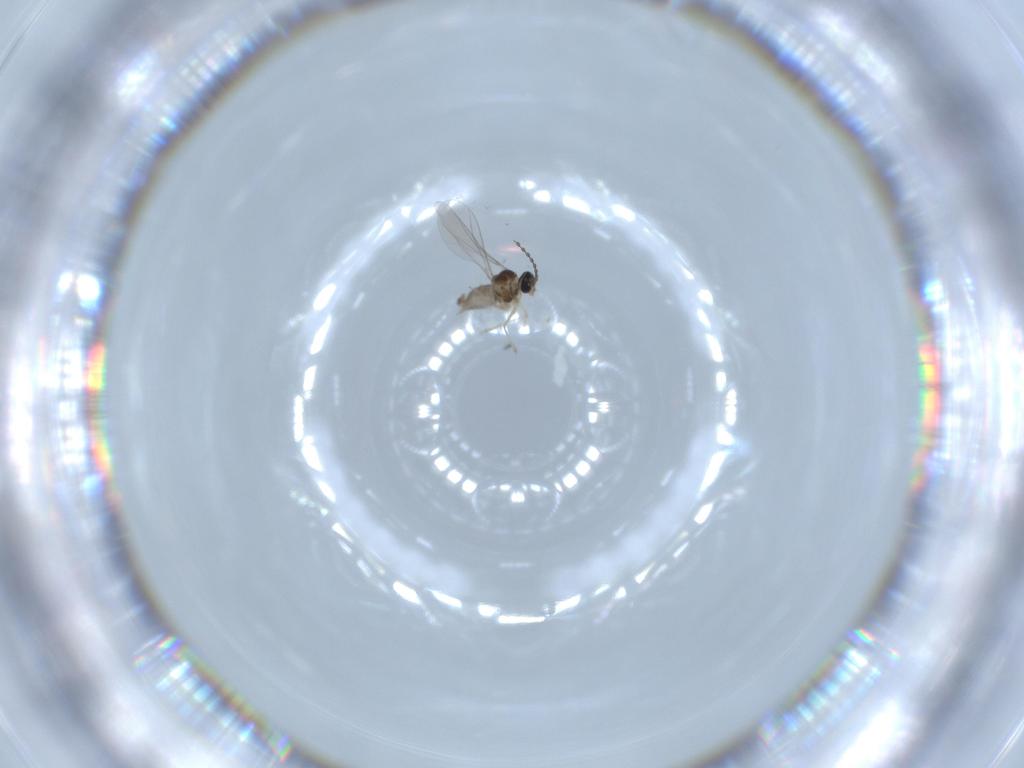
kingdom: Animalia
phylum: Arthropoda
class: Insecta
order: Diptera
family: Cecidomyiidae
